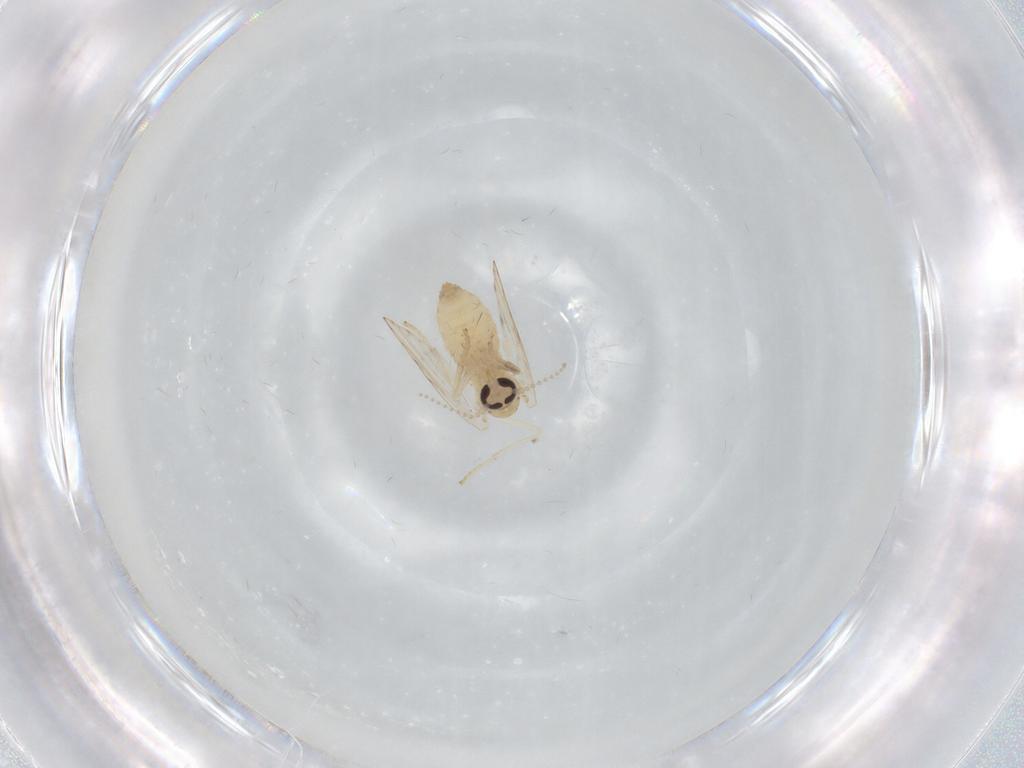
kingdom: Animalia
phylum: Arthropoda
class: Insecta
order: Diptera
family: Psychodidae
